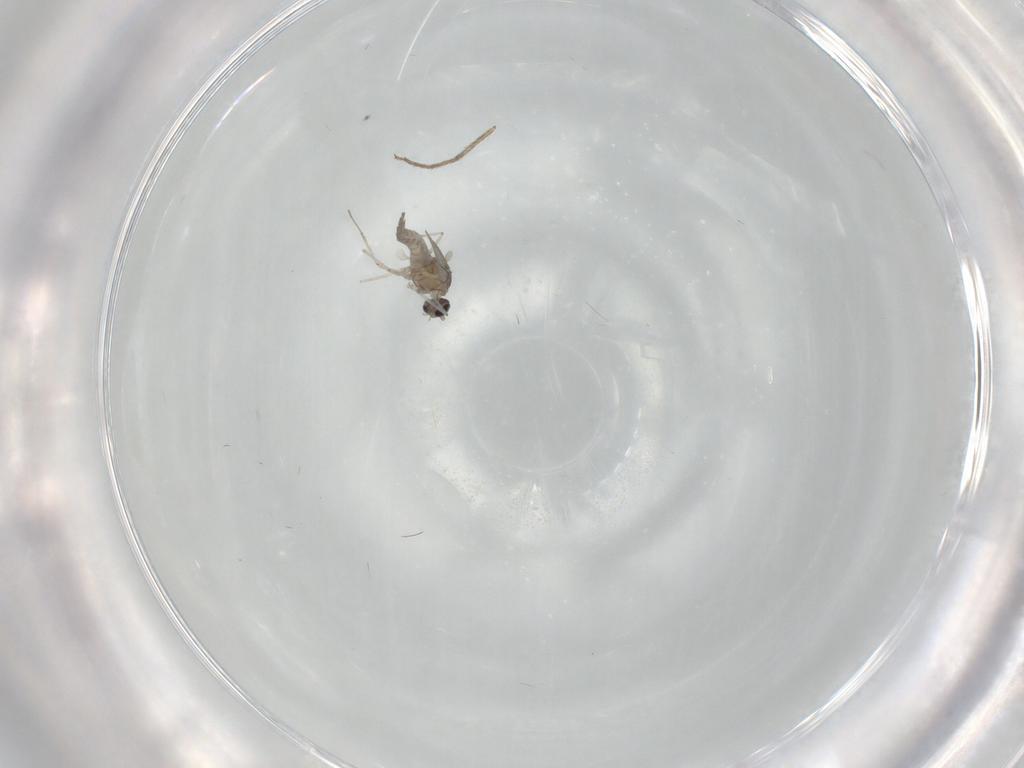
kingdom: Animalia
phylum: Arthropoda
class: Insecta
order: Diptera
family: Cecidomyiidae
